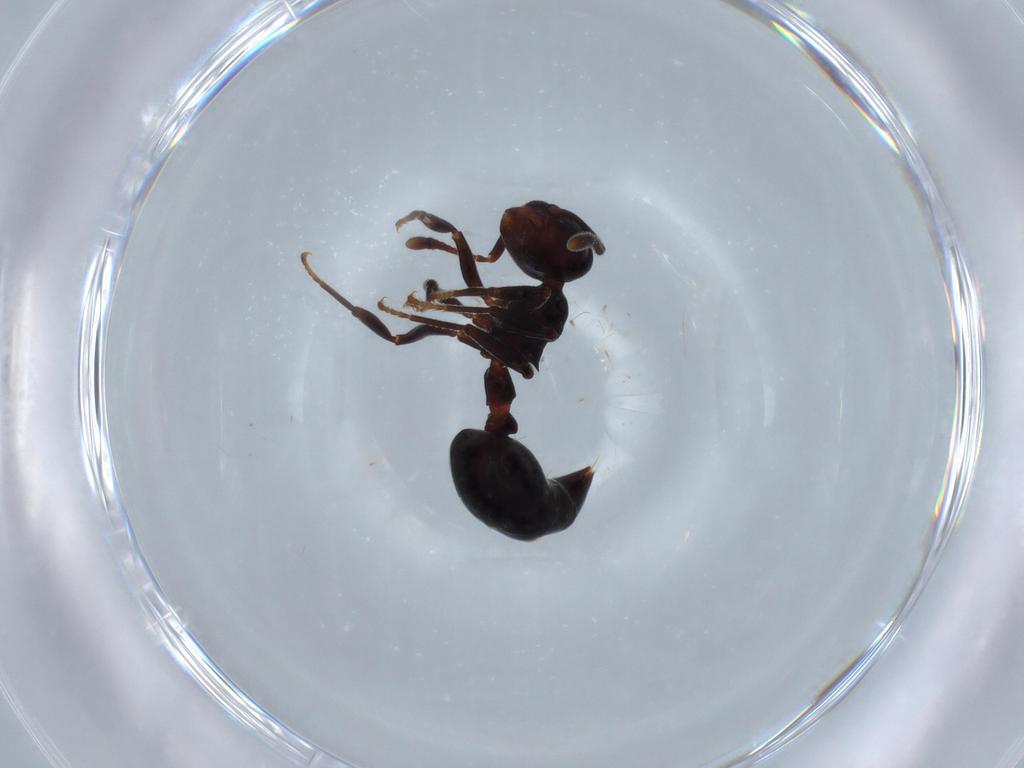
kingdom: Animalia
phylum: Arthropoda
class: Insecta
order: Hymenoptera
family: Formicidae
